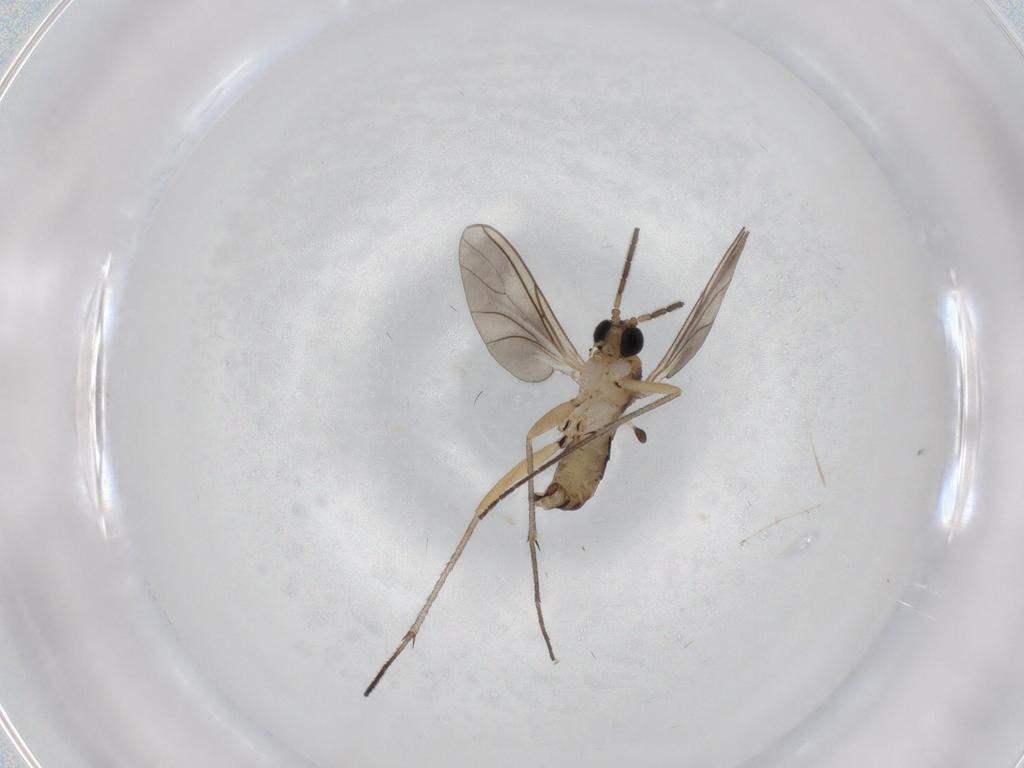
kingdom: Animalia
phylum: Arthropoda
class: Insecta
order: Diptera
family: Cecidomyiidae
